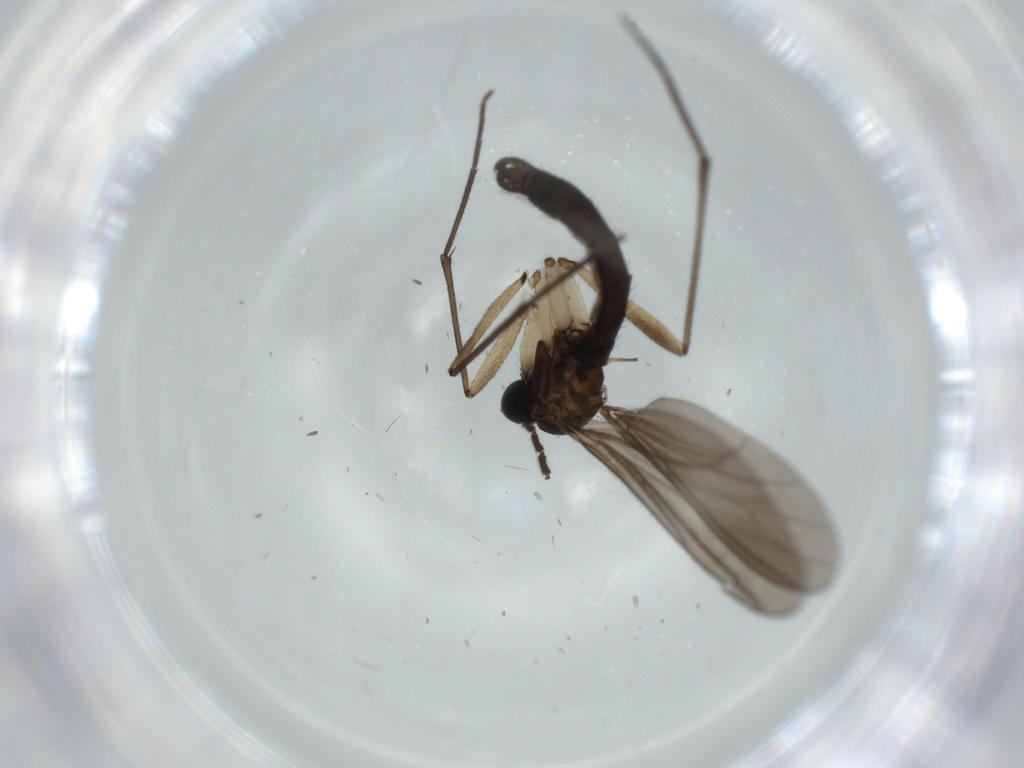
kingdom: Animalia
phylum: Arthropoda
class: Insecta
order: Diptera
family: Sciaridae
